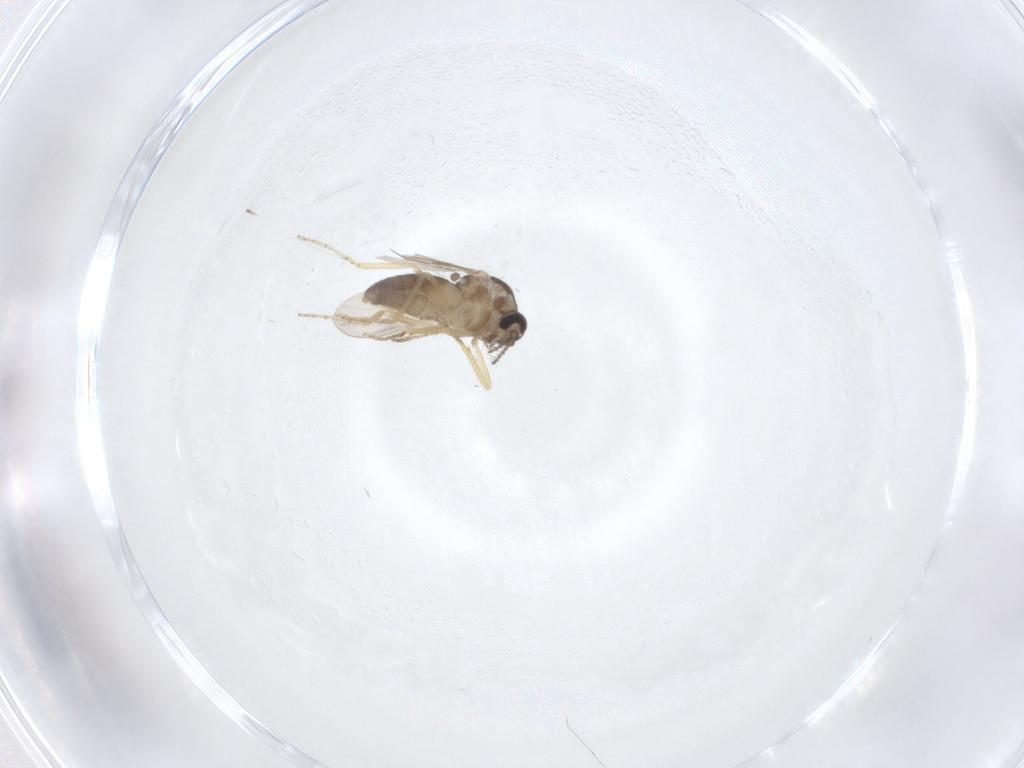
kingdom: Animalia
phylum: Arthropoda
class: Insecta
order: Diptera
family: Ceratopogonidae
